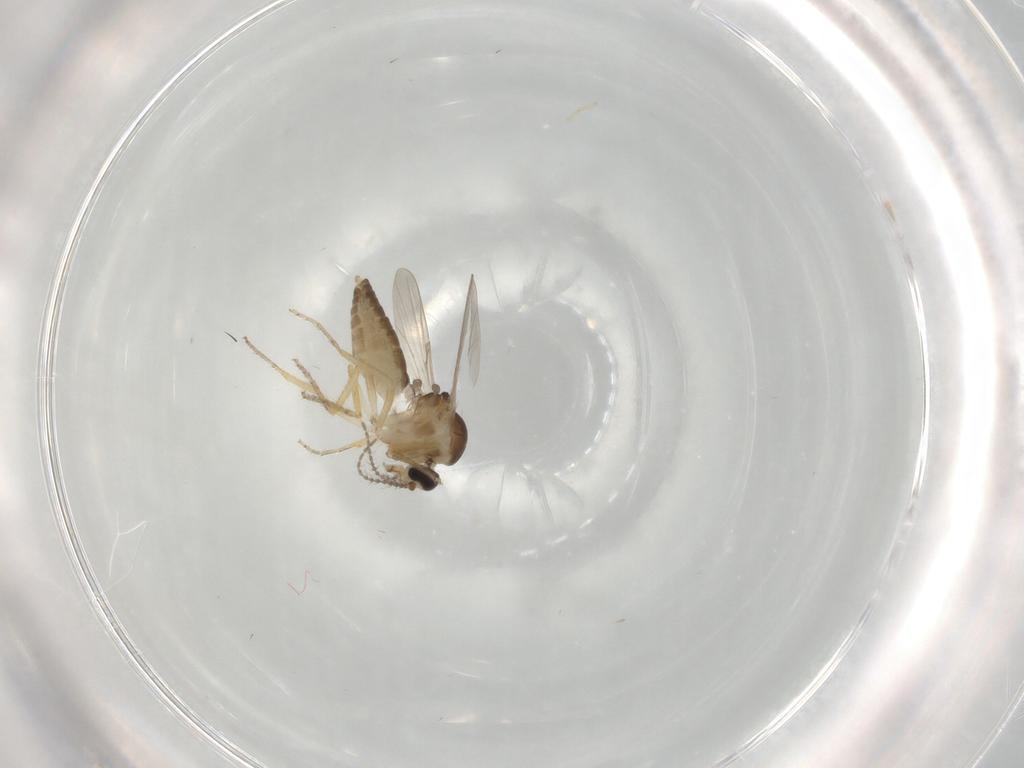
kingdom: Animalia
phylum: Arthropoda
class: Insecta
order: Diptera
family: Ceratopogonidae
